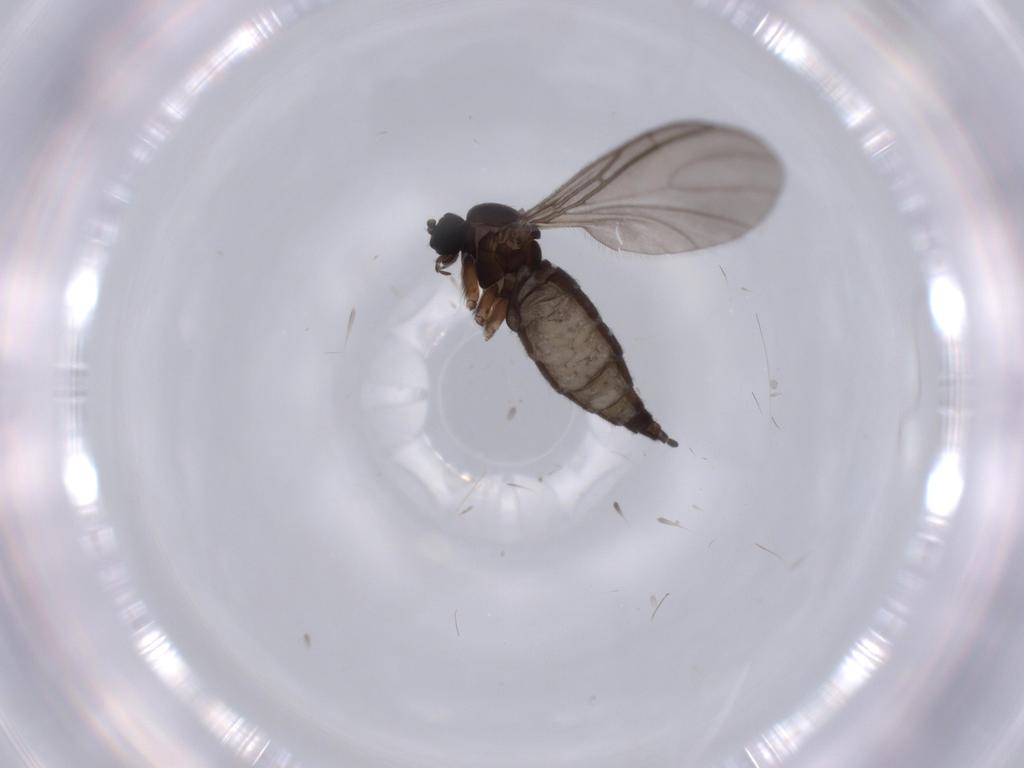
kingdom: Animalia
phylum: Arthropoda
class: Insecta
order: Diptera
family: Sciaridae
